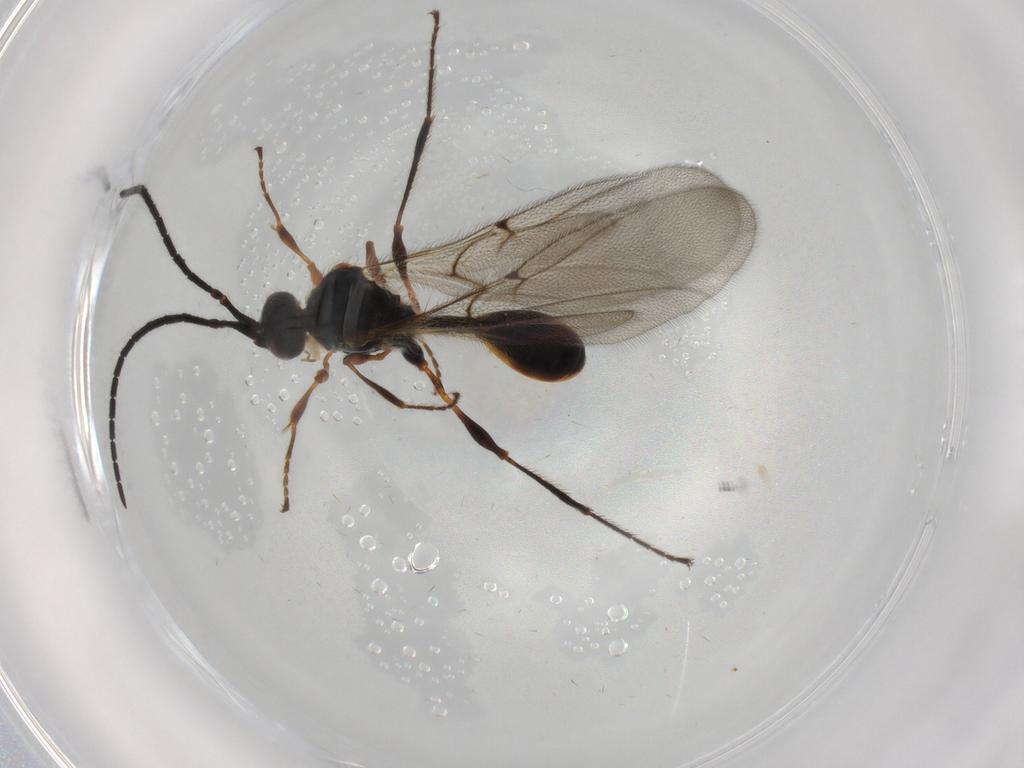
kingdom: Animalia
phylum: Arthropoda
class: Insecta
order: Hymenoptera
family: Diapriidae
